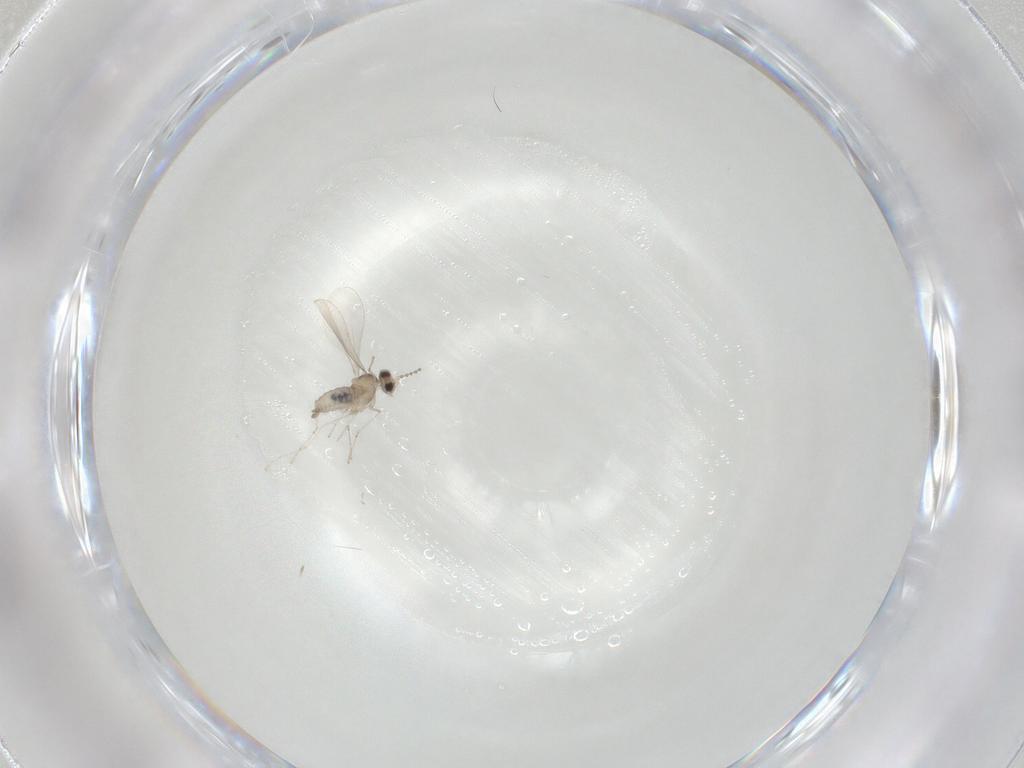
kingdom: Animalia
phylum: Arthropoda
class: Insecta
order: Diptera
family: Cecidomyiidae
